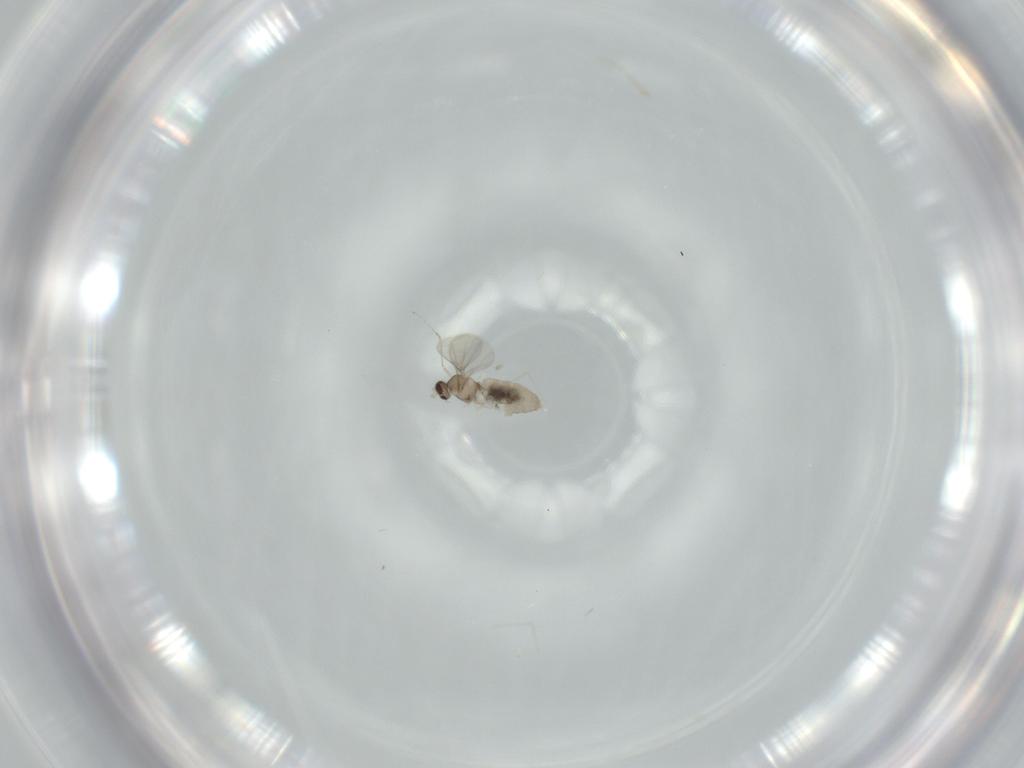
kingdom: Animalia
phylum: Arthropoda
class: Insecta
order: Diptera
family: Cecidomyiidae
